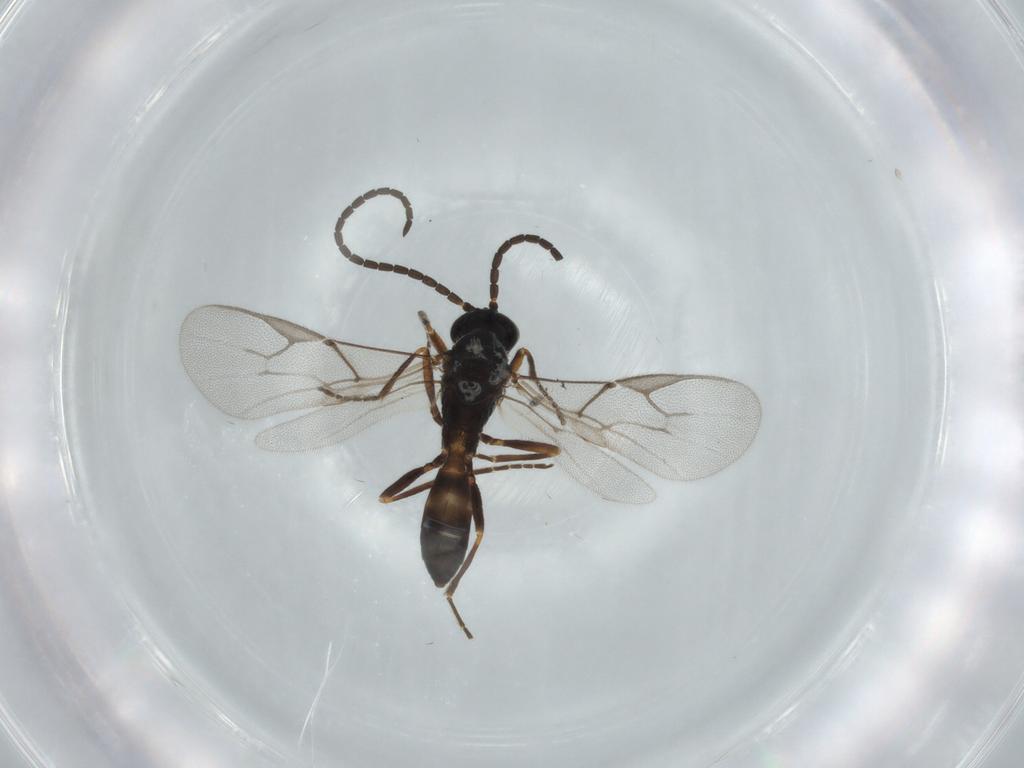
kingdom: Animalia
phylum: Arthropoda
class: Insecta
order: Hymenoptera
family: Braconidae
